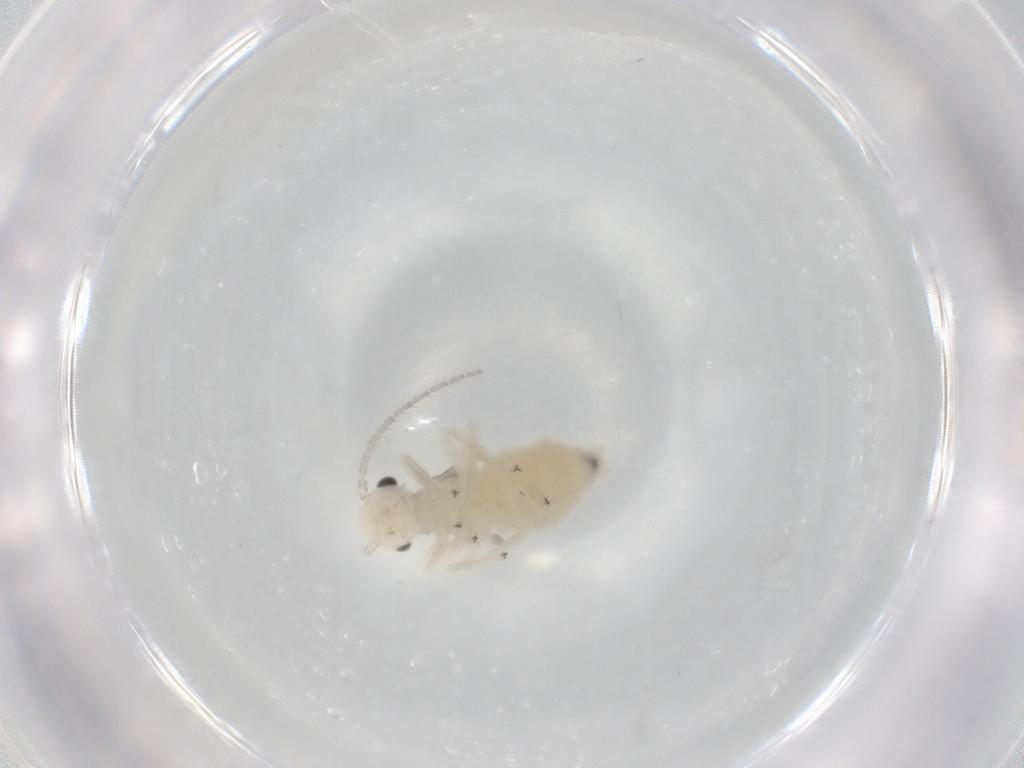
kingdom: Animalia
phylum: Arthropoda
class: Insecta
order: Psocodea
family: Amphipsocidae
